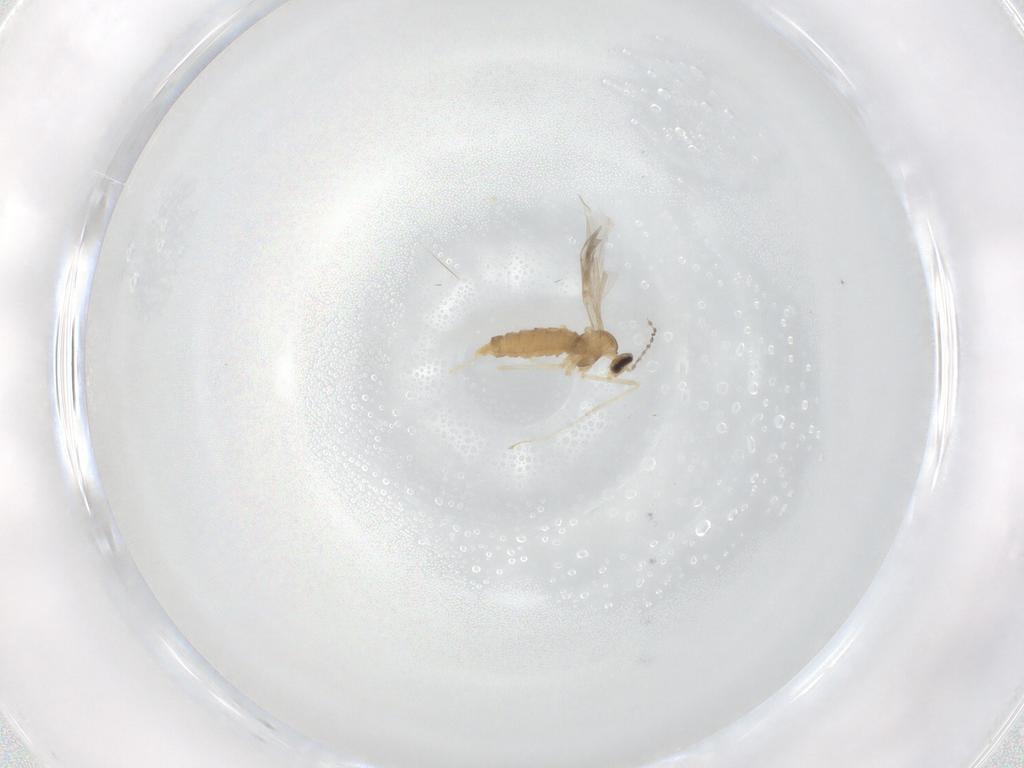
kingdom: Animalia
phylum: Arthropoda
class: Insecta
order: Diptera
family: Cecidomyiidae
